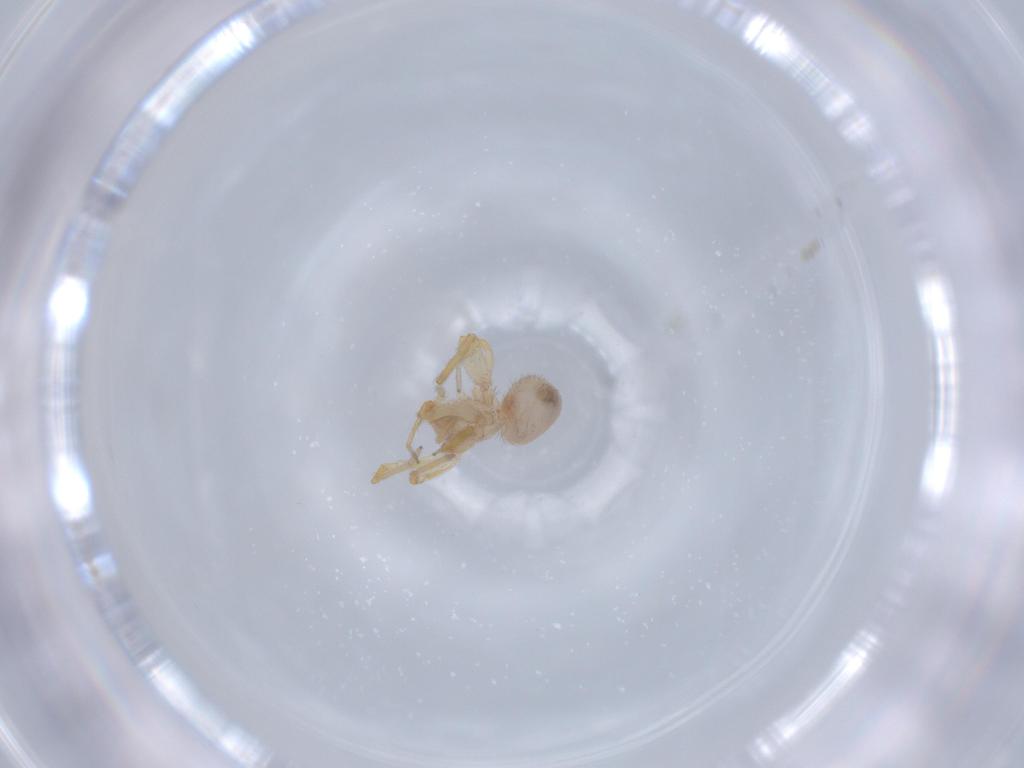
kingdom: Animalia
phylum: Arthropoda
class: Arachnida
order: Araneae
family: Oonopidae
